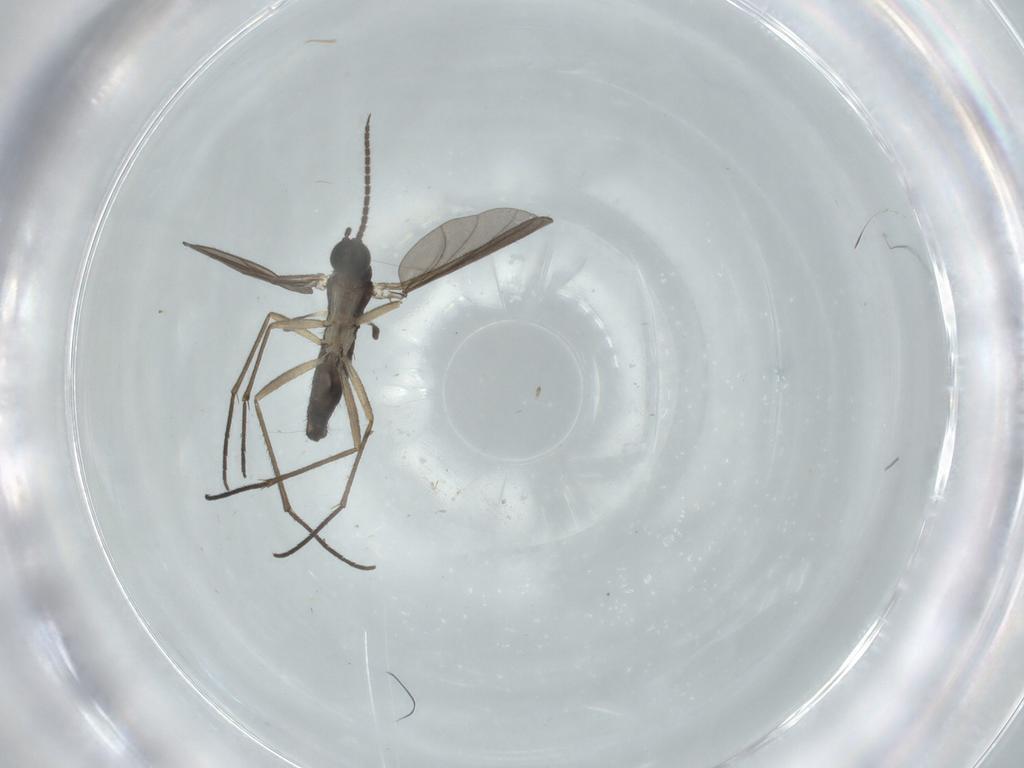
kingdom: Animalia
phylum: Arthropoda
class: Insecta
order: Diptera
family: Sciaridae
